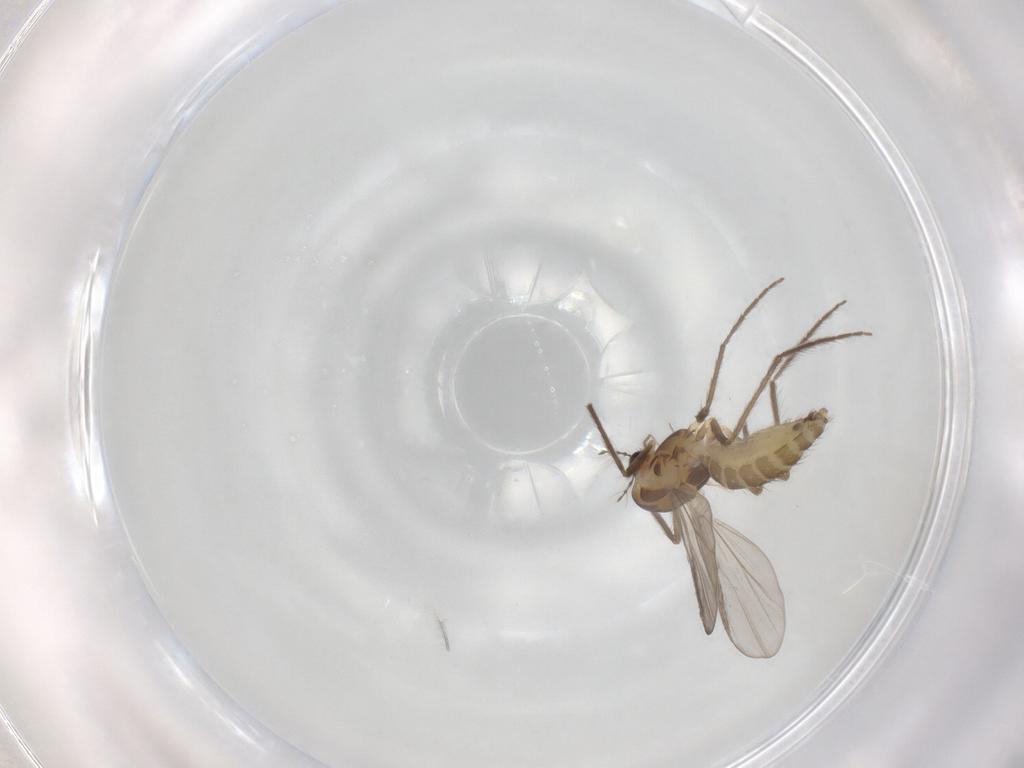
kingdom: Animalia
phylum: Arthropoda
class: Insecta
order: Diptera
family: Chironomidae
